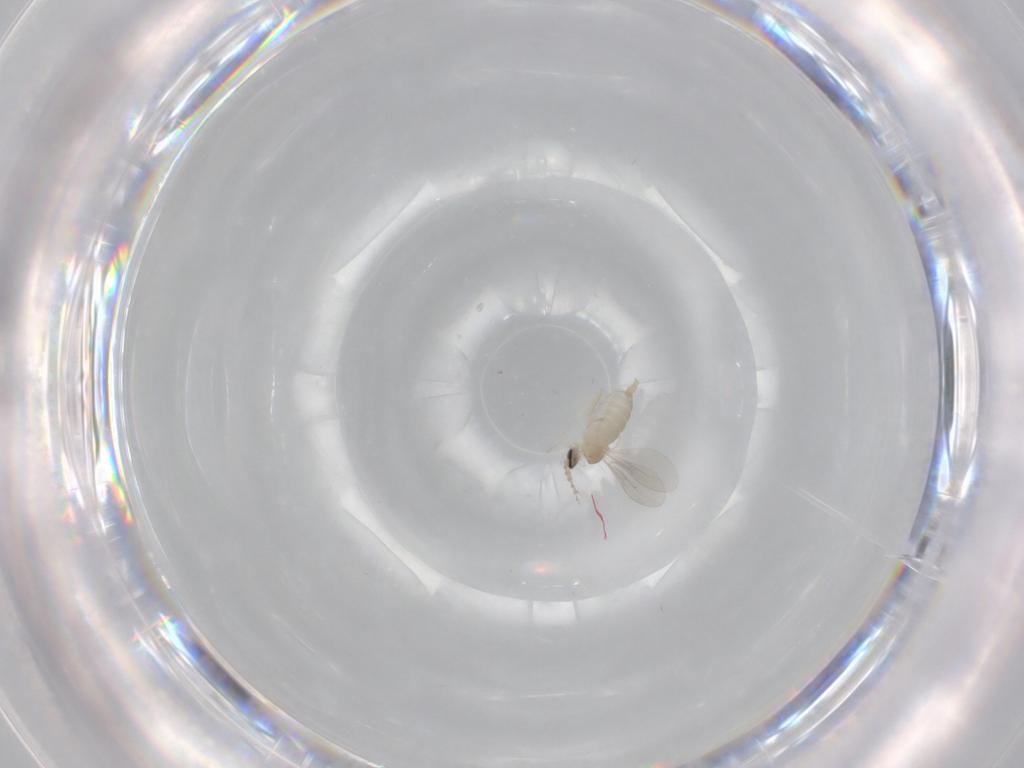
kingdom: Animalia
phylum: Arthropoda
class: Insecta
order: Diptera
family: Cecidomyiidae
